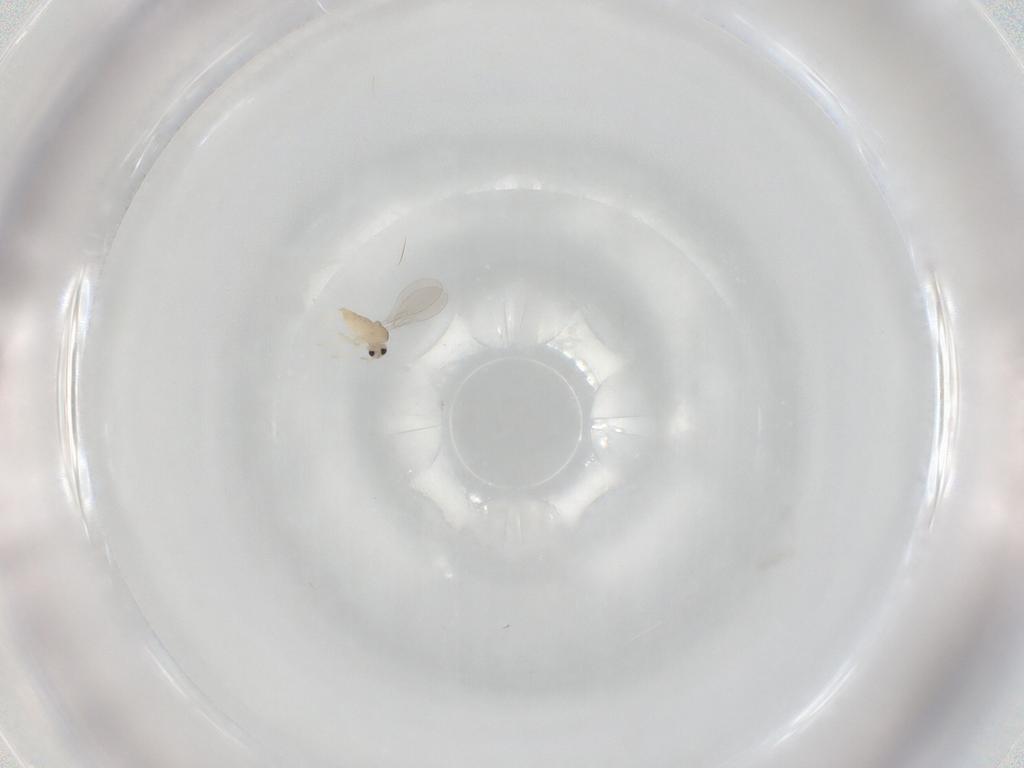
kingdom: Animalia
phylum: Arthropoda
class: Insecta
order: Diptera
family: Cecidomyiidae
